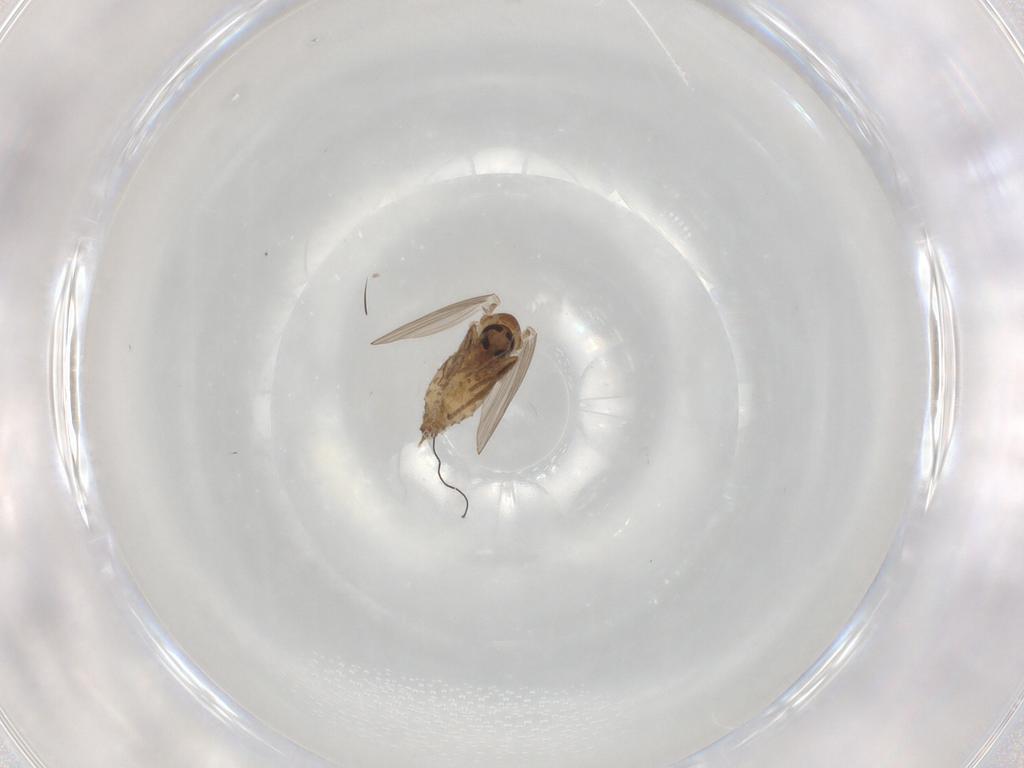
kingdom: Animalia
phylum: Arthropoda
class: Insecta
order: Diptera
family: Psychodidae
